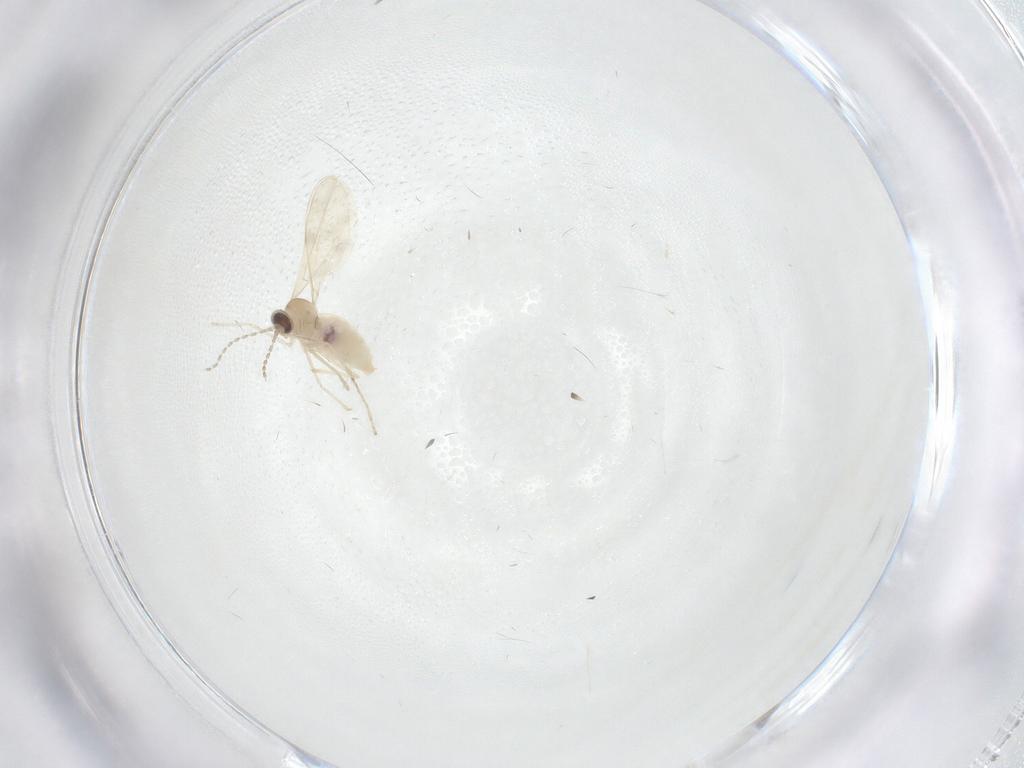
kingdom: Animalia
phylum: Arthropoda
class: Insecta
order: Diptera
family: Cecidomyiidae
